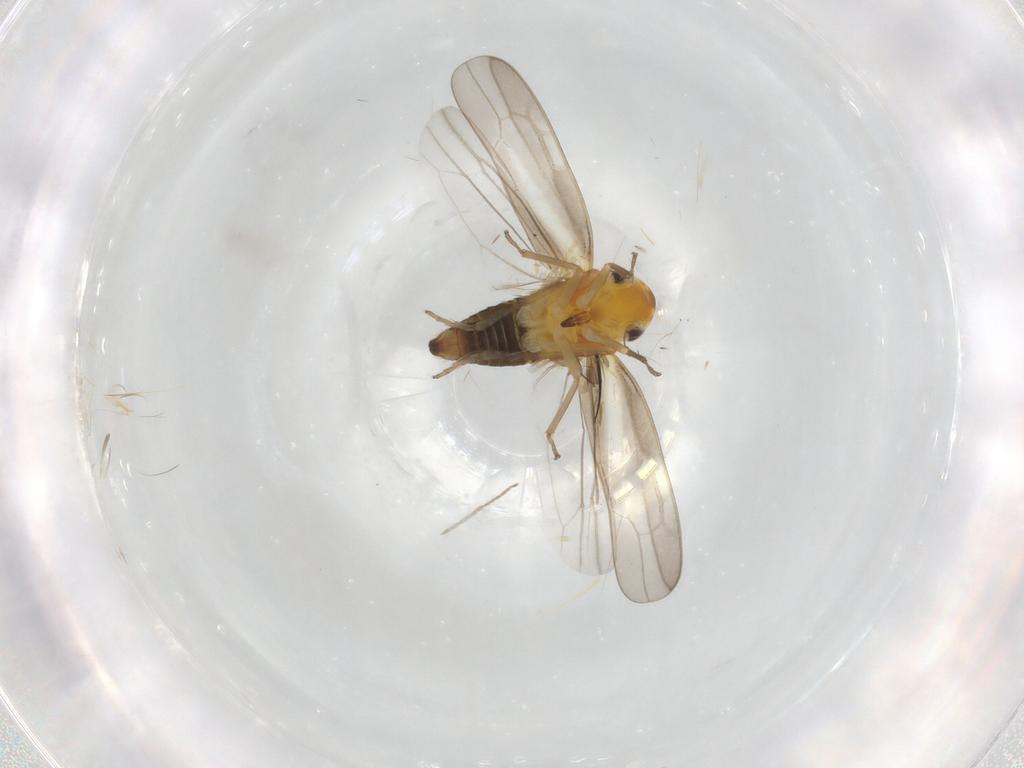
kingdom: Animalia
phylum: Arthropoda
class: Insecta
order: Hemiptera
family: Cicadellidae
